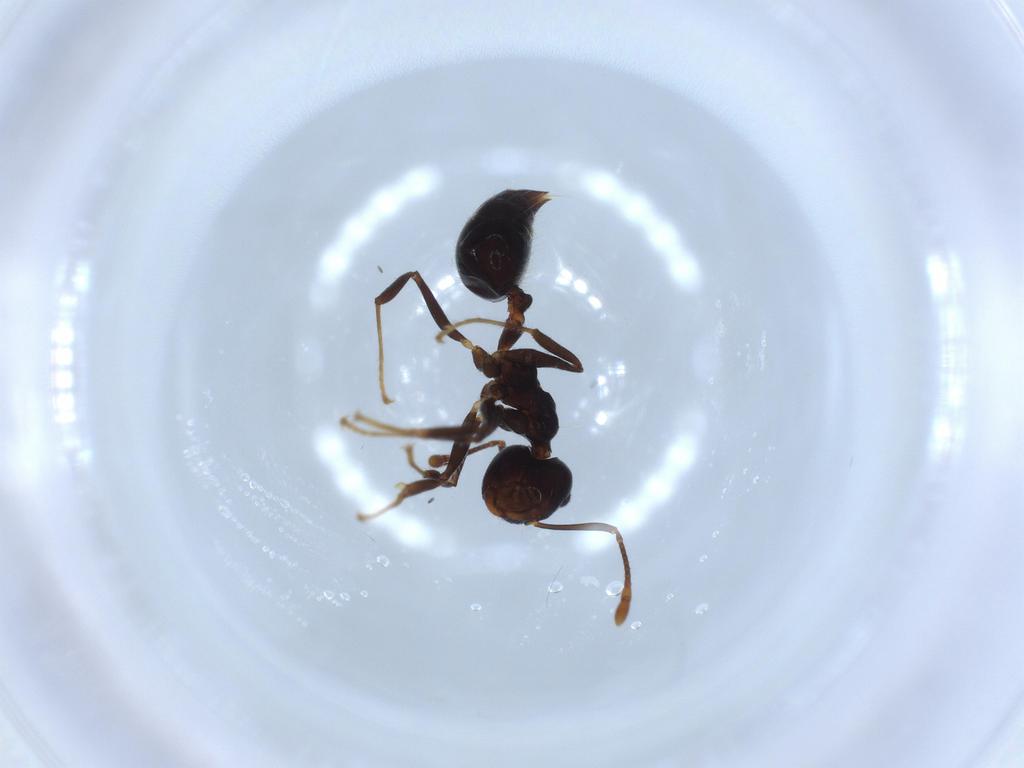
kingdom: Animalia
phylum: Arthropoda
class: Insecta
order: Hymenoptera
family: Formicidae
